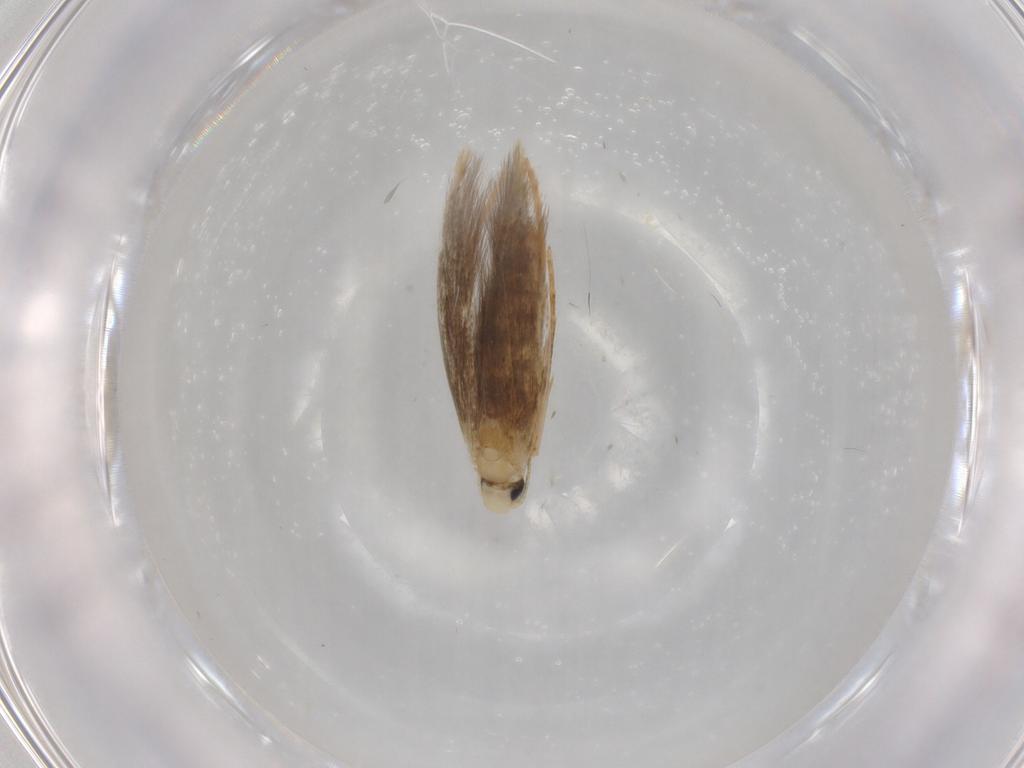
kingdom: Animalia
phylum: Arthropoda
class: Insecta
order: Lepidoptera
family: Tischeriidae
